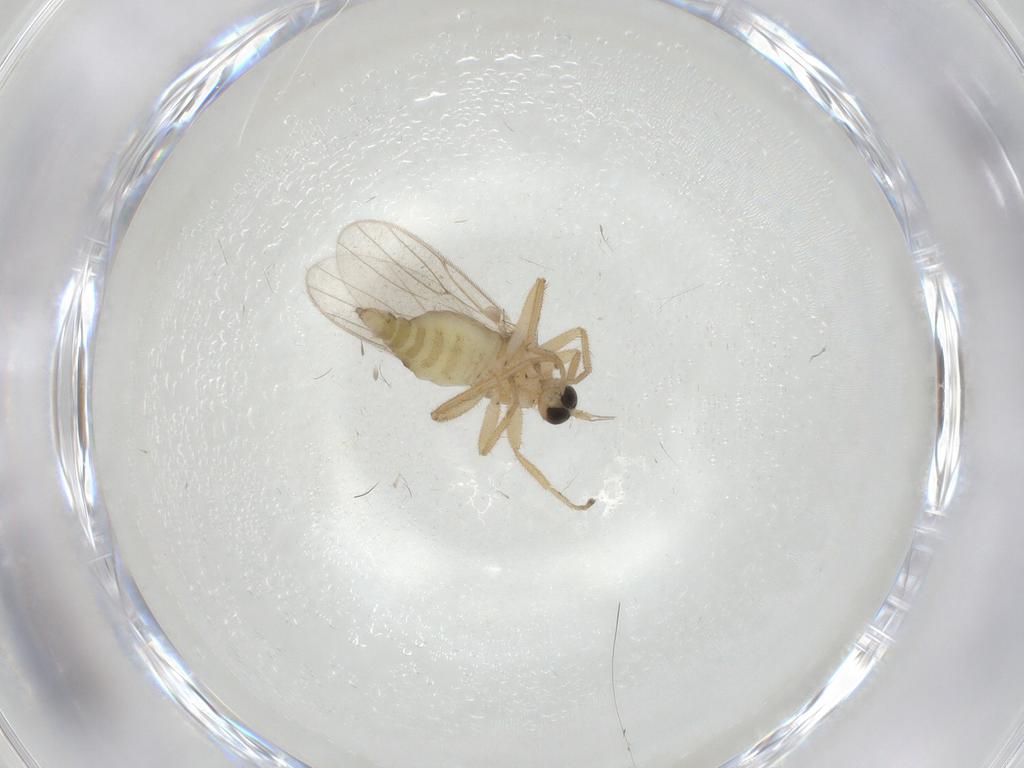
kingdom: Animalia
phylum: Arthropoda
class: Insecta
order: Diptera
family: Hybotidae
